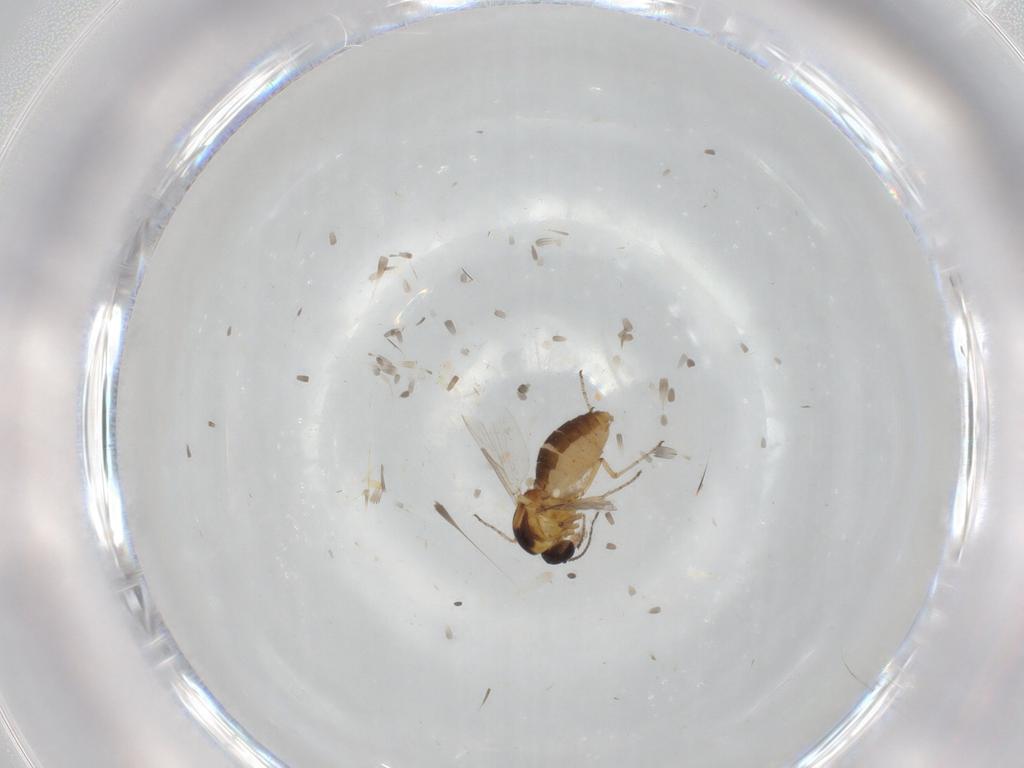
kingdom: Animalia
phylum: Arthropoda
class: Insecta
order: Diptera
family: Ceratopogonidae
